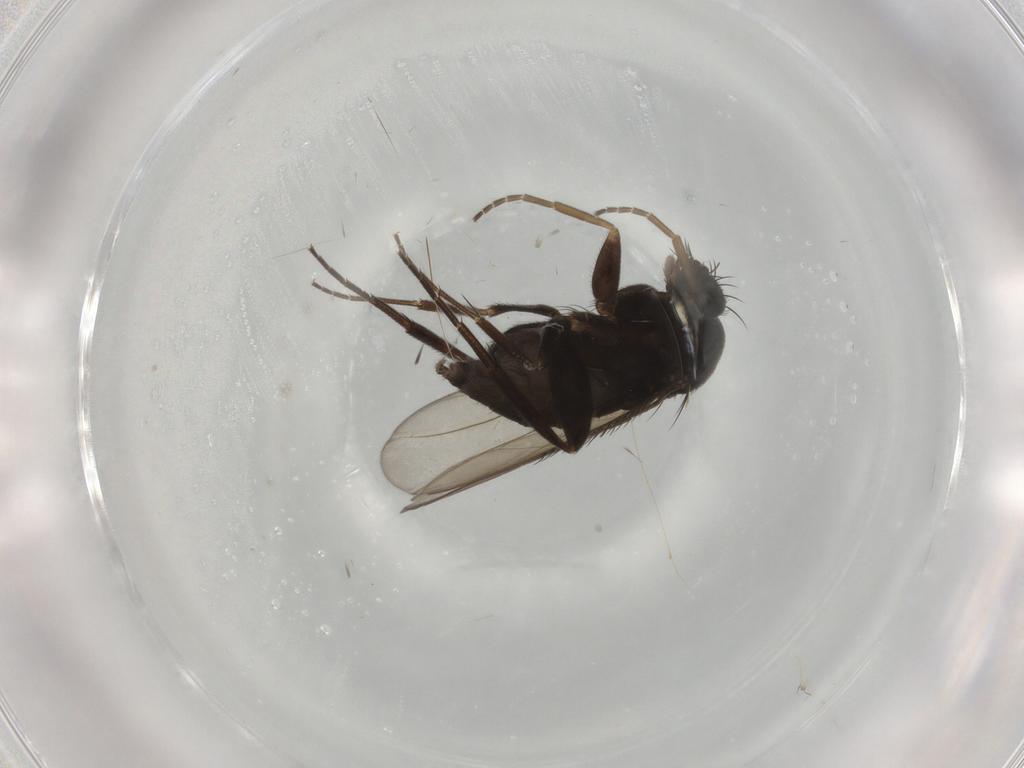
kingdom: Animalia
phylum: Arthropoda
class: Insecta
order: Diptera
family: Phoridae
